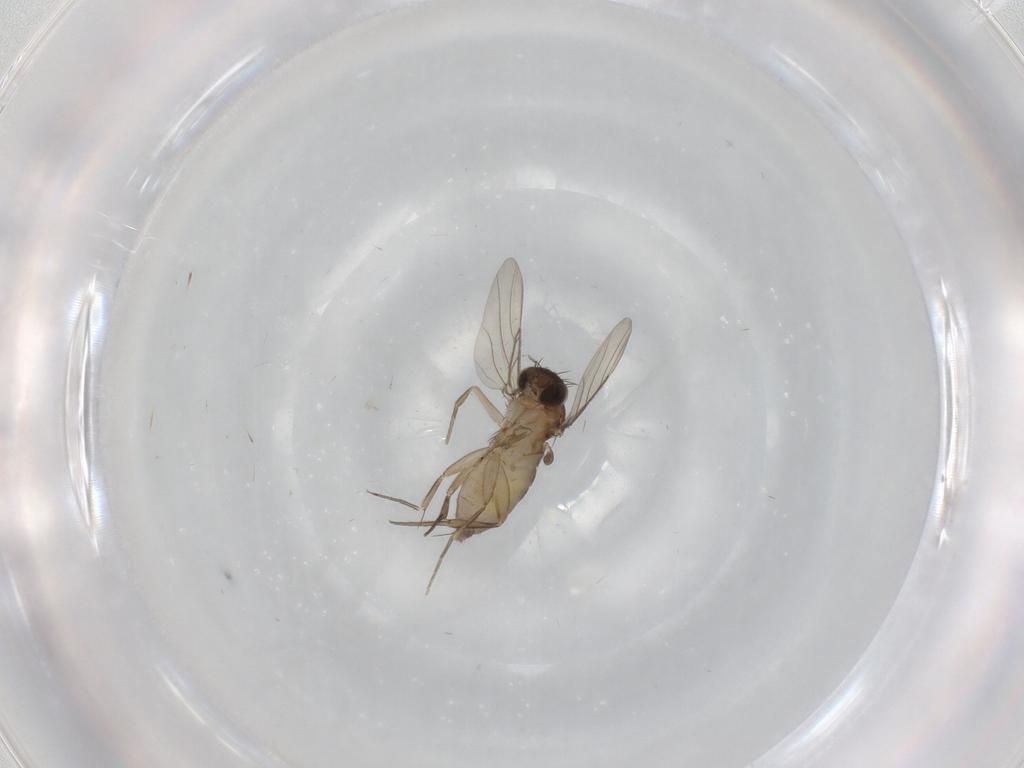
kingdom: Animalia
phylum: Arthropoda
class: Insecta
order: Diptera
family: Phoridae
